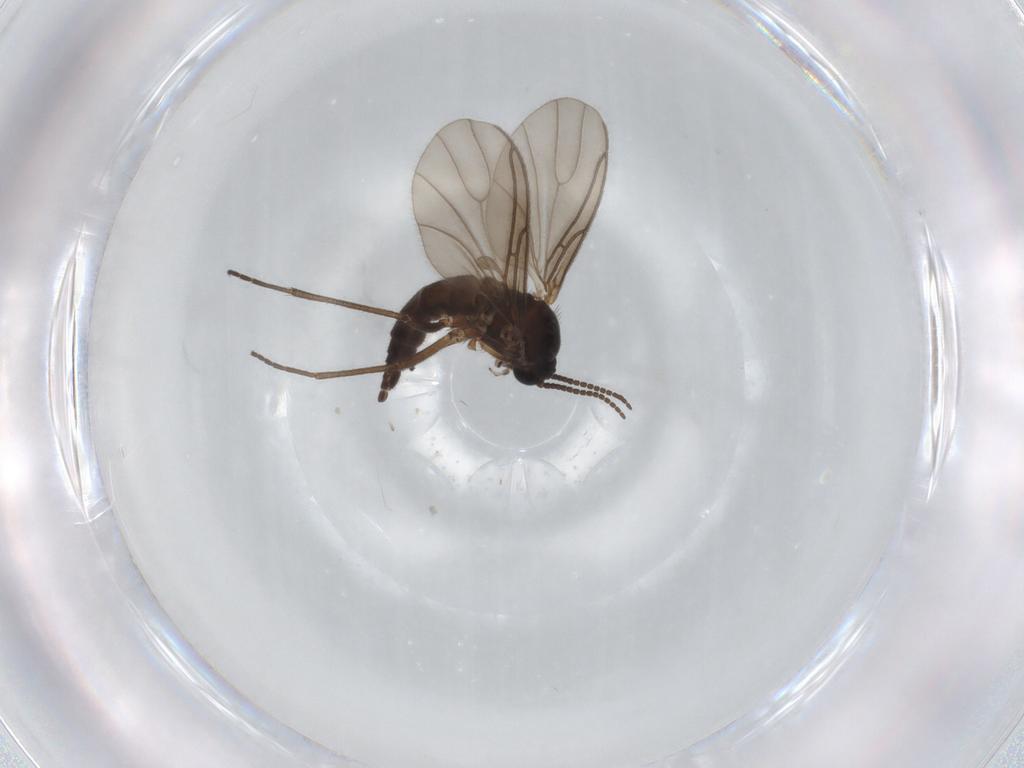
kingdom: Animalia
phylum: Arthropoda
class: Insecta
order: Diptera
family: Sciaridae
